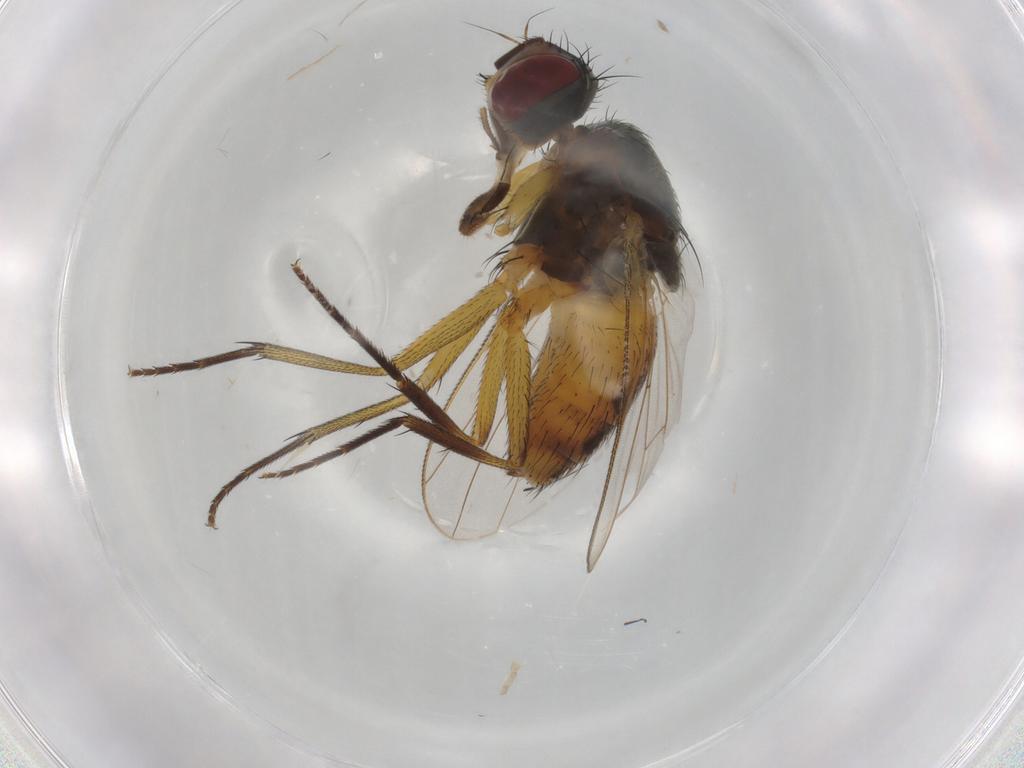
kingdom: Animalia
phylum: Arthropoda
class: Insecta
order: Diptera
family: Muscidae
